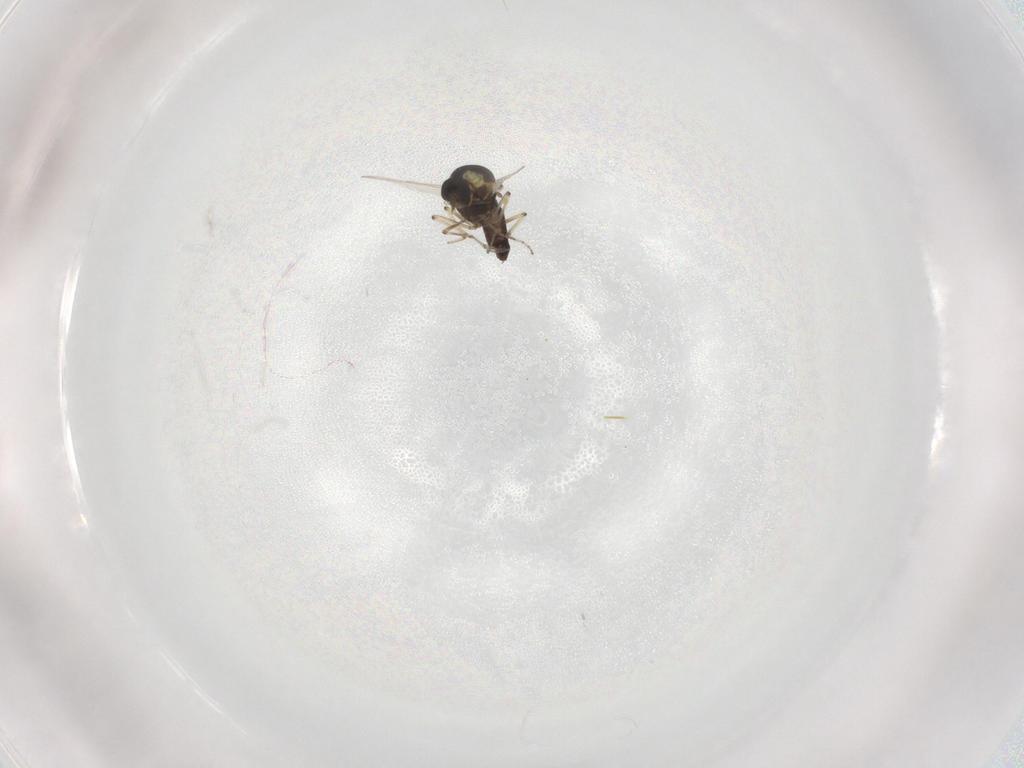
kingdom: Animalia
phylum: Arthropoda
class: Insecta
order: Diptera
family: Ceratopogonidae
